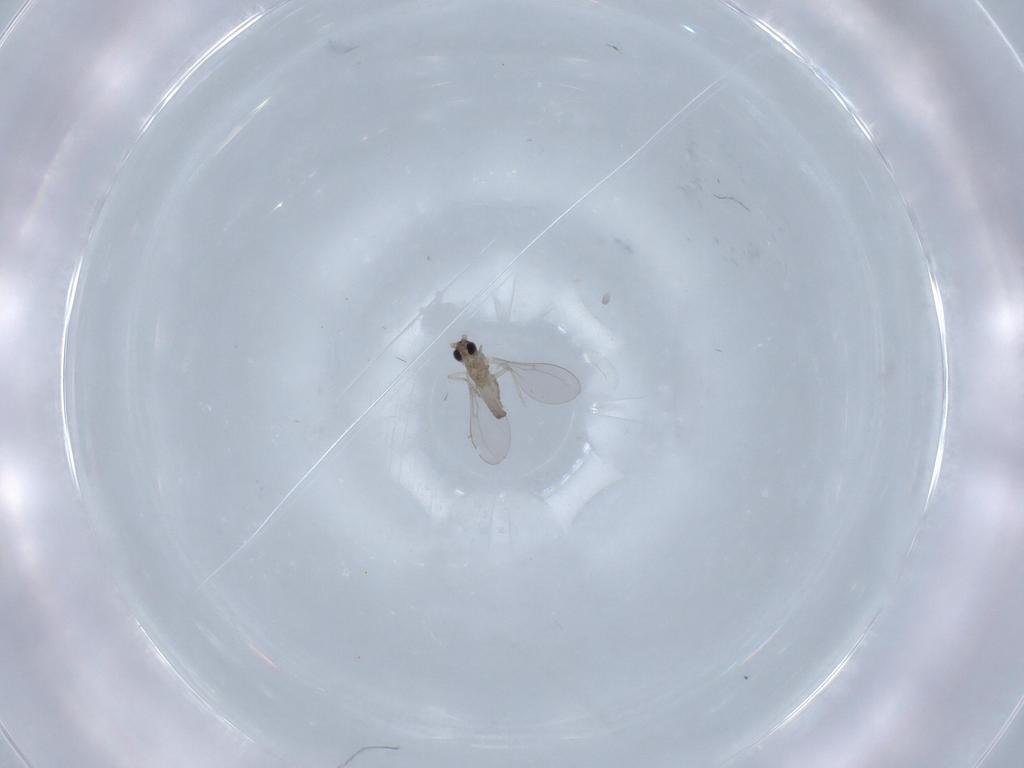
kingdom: Animalia
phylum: Arthropoda
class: Insecta
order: Diptera
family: Cecidomyiidae
